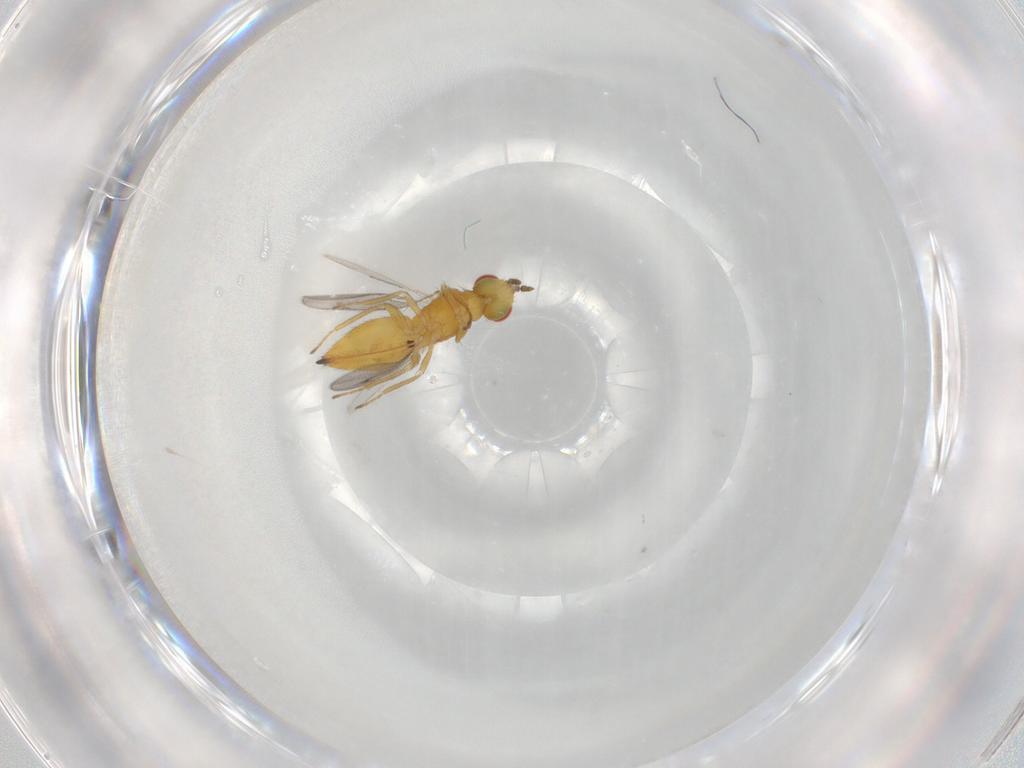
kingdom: Animalia
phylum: Arthropoda
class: Insecta
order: Hymenoptera
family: Eulophidae
